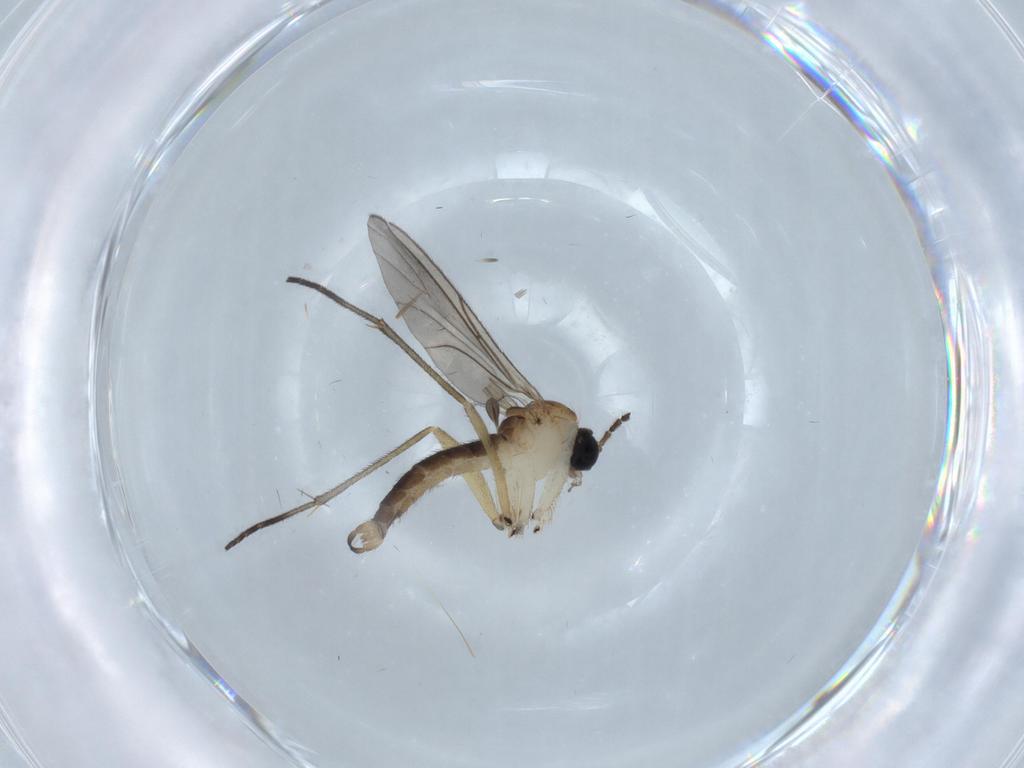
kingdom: Animalia
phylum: Arthropoda
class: Insecta
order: Diptera
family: Sciaridae
